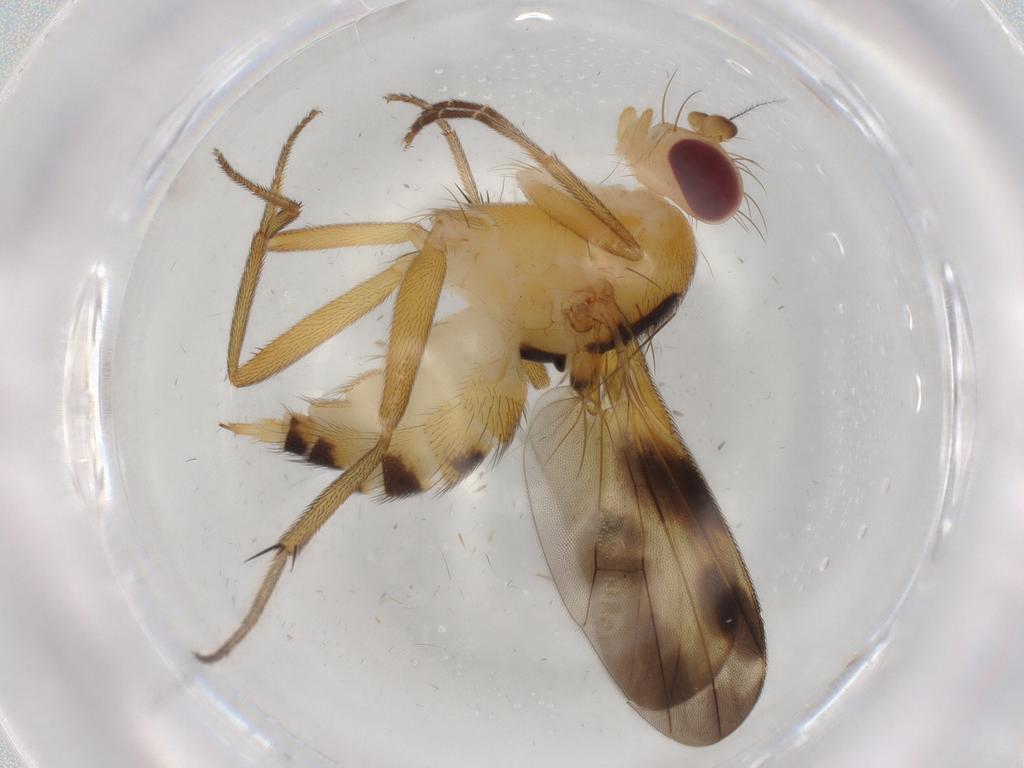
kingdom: Animalia
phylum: Arthropoda
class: Insecta
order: Diptera
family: Clusiidae
